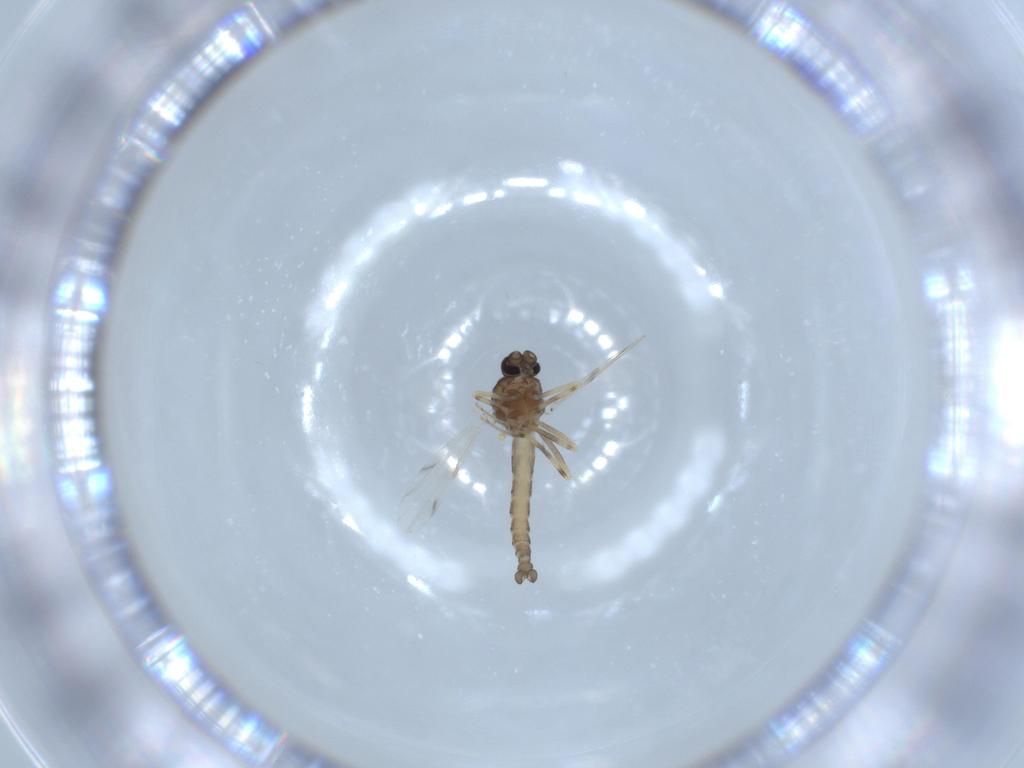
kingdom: Animalia
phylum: Arthropoda
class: Insecta
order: Diptera
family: Ceratopogonidae
